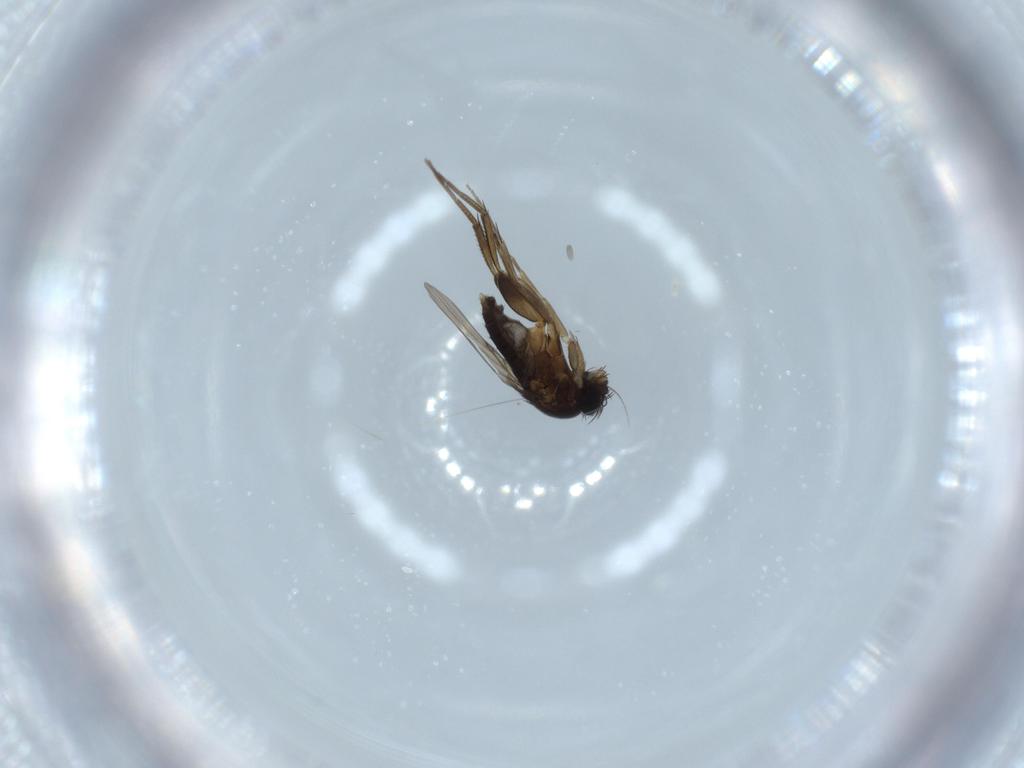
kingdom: Animalia
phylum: Arthropoda
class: Insecta
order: Diptera
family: Phoridae
